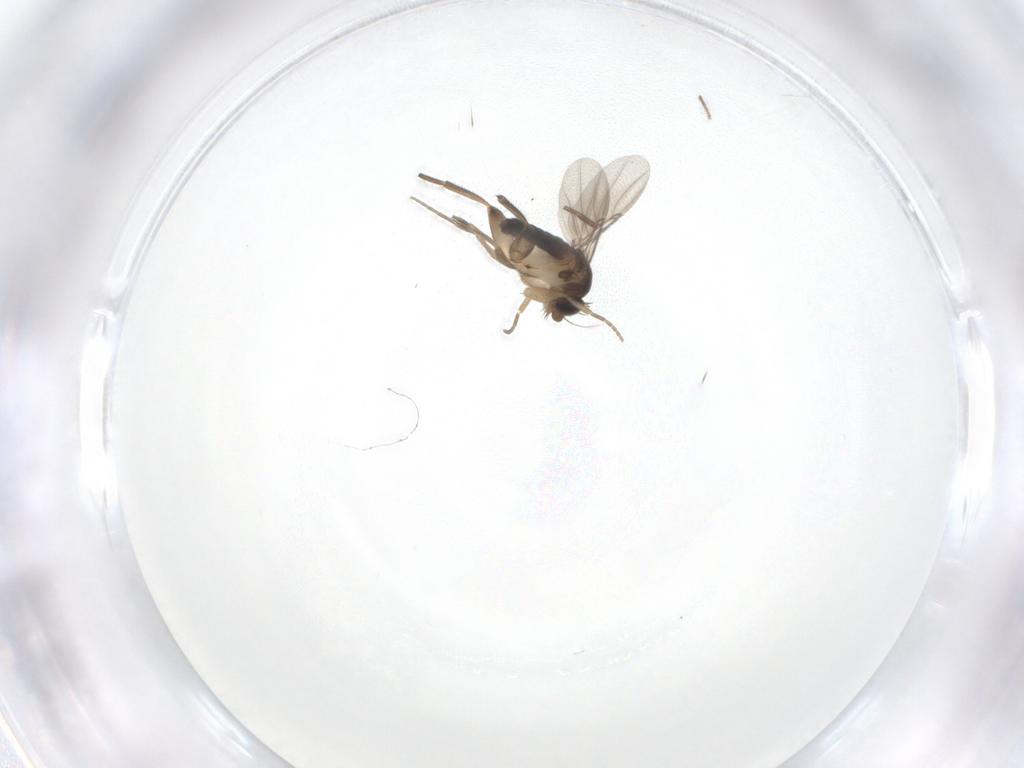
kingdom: Animalia
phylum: Arthropoda
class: Insecta
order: Diptera
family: Phoridae
